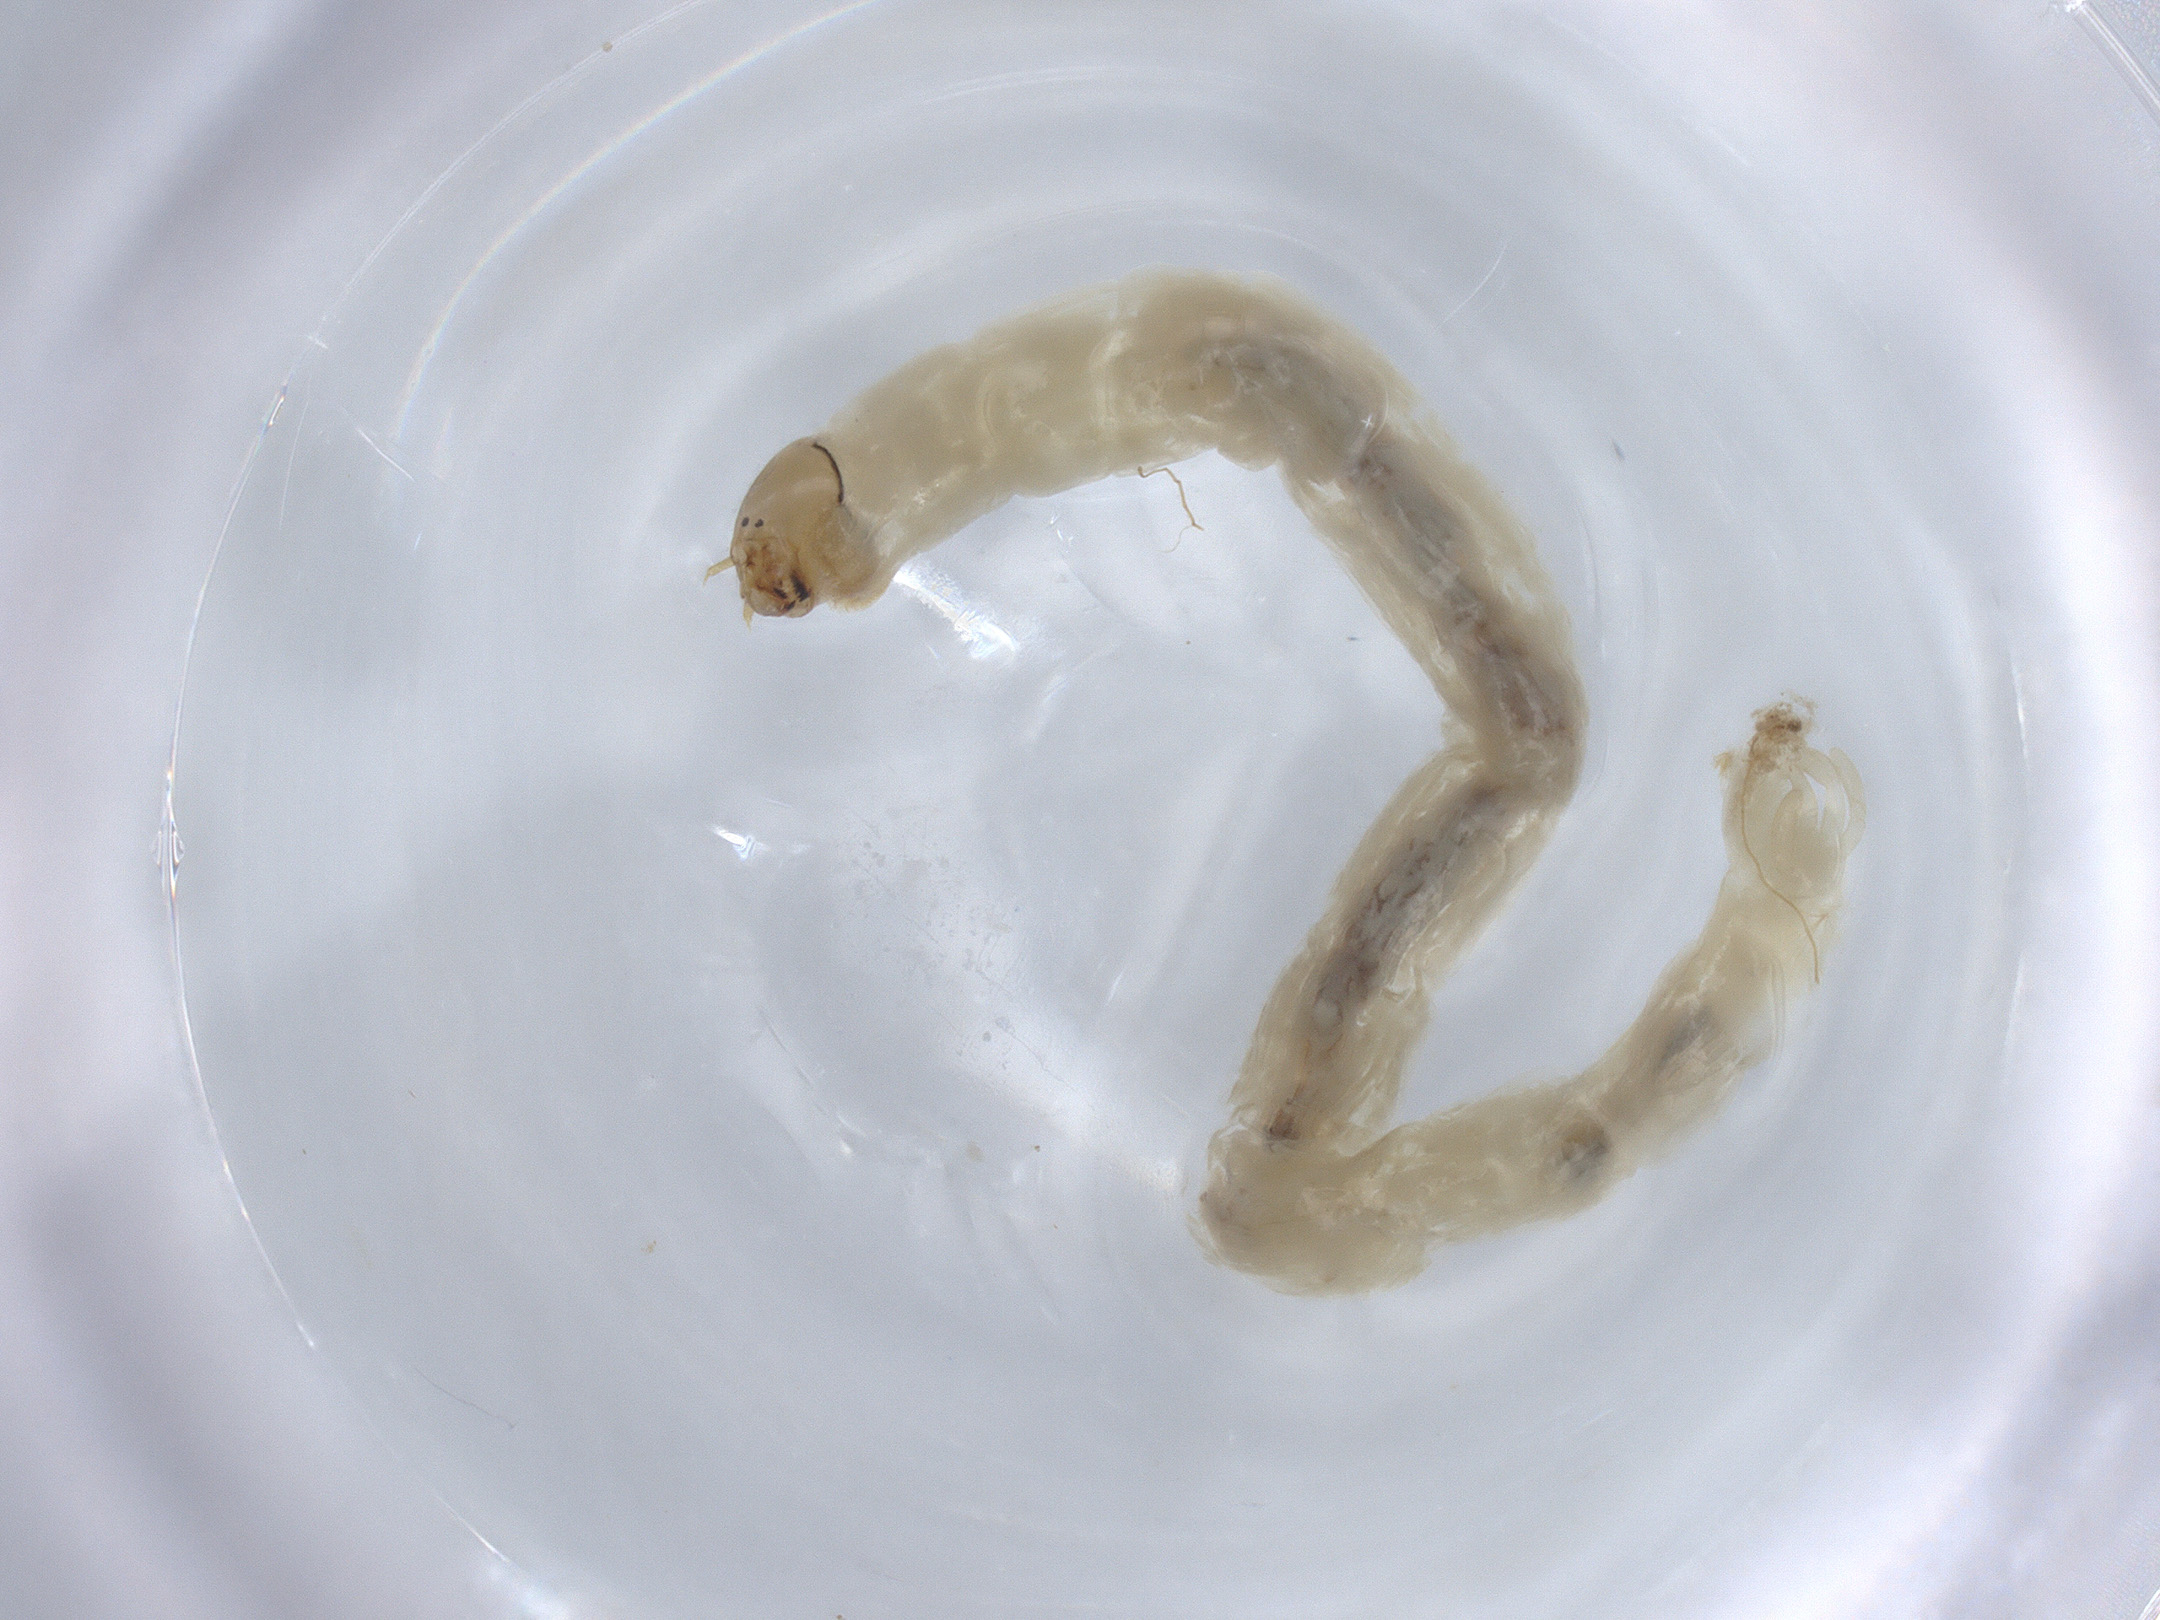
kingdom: Animalia
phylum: Arthropoda
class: Insecta
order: Diptera
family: Chironomidae
